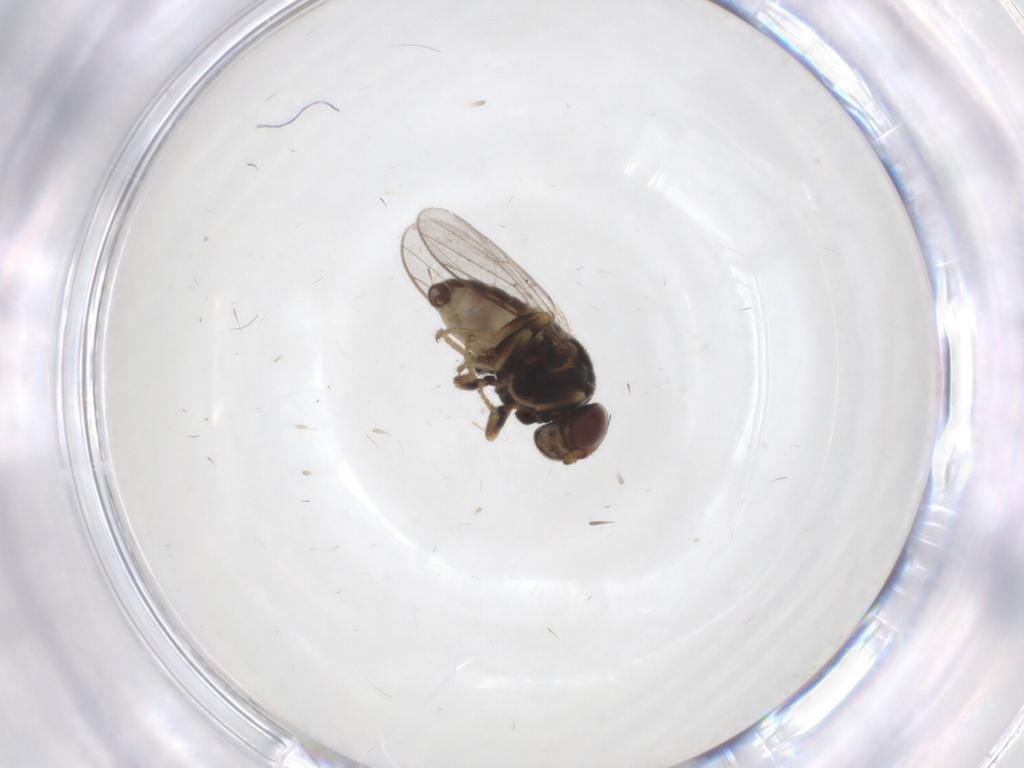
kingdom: Animalia
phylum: Arthropoda
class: Insecta
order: Diptera
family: Chloropidae
